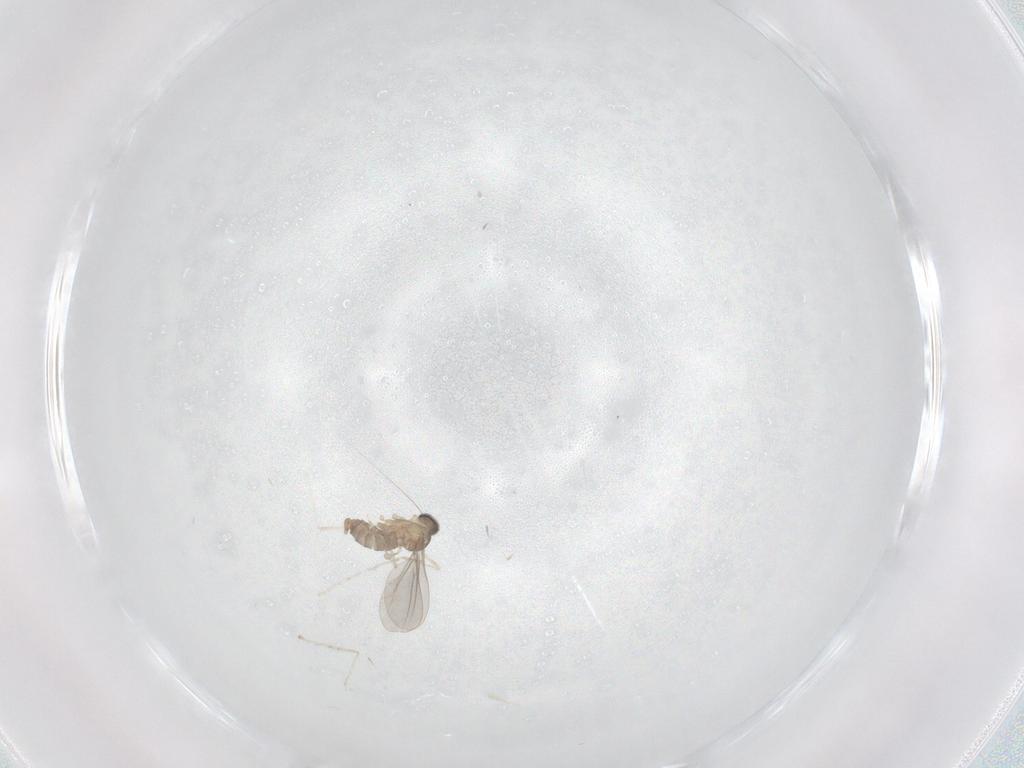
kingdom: Animalia
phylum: Arthropoda
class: Insecta
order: Diptera
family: Cecidomyiidae
